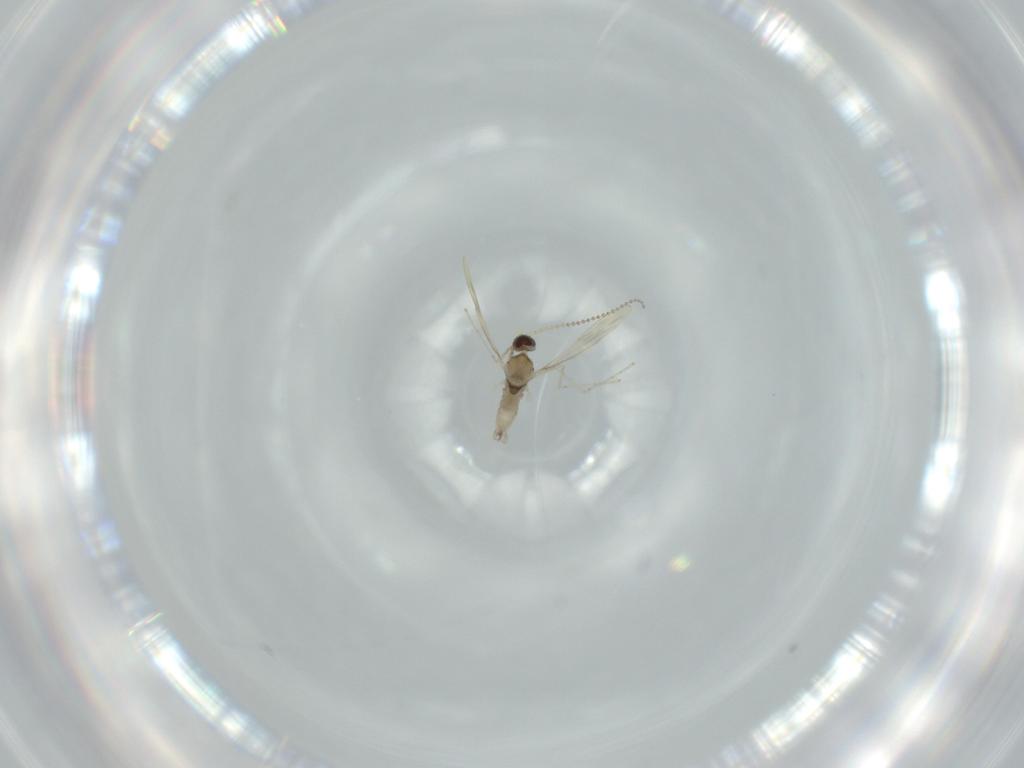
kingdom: Animalia
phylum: Arthropoda
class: Insecta
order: Diptera
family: Cecidomyiidae
